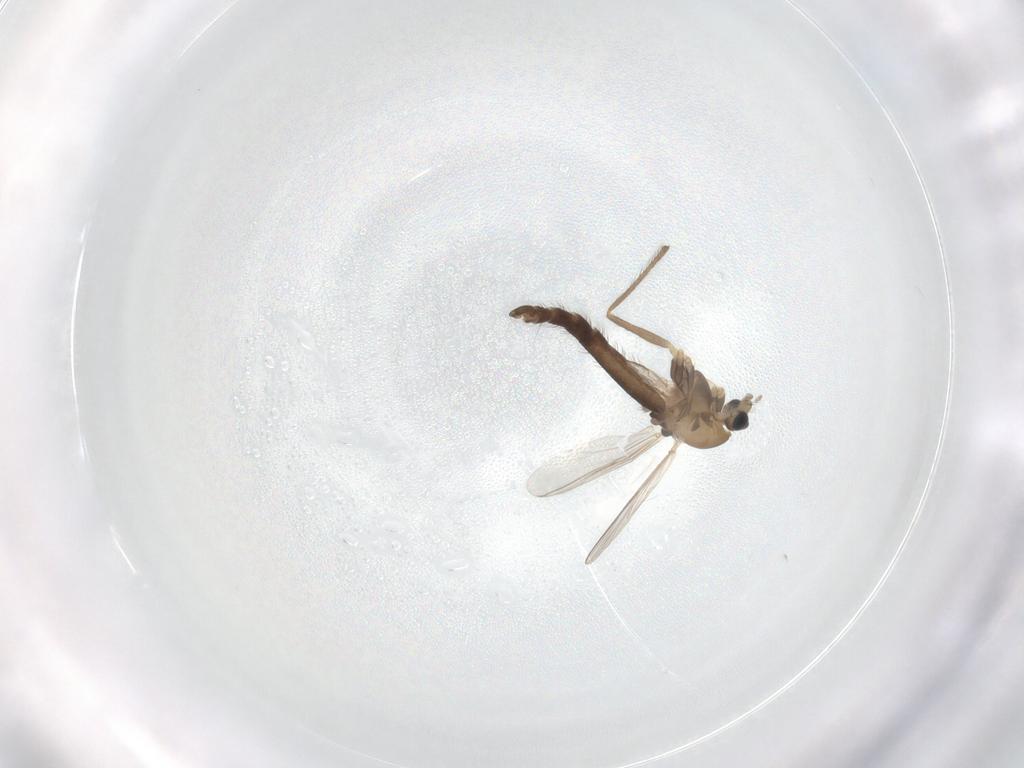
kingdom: Animalia
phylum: Arthropoda
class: Insecta
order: Diptera
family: Chironomidae
